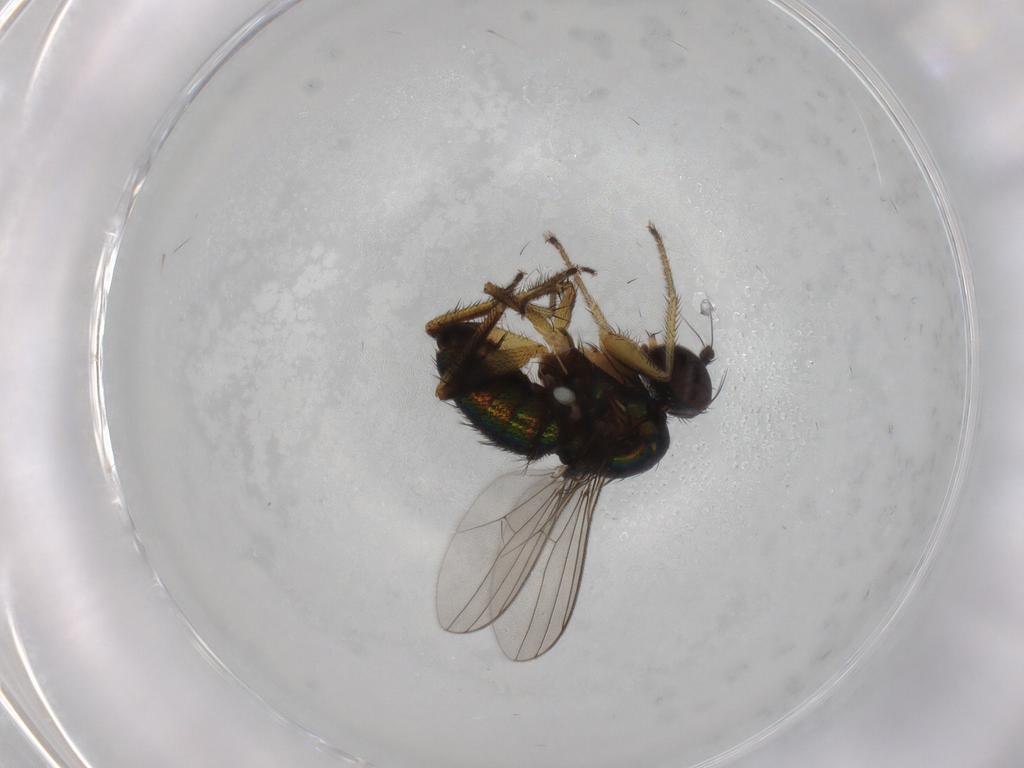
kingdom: Animalia
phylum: Arthropoda
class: Insecta
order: Diptera
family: Dolichopodidae
